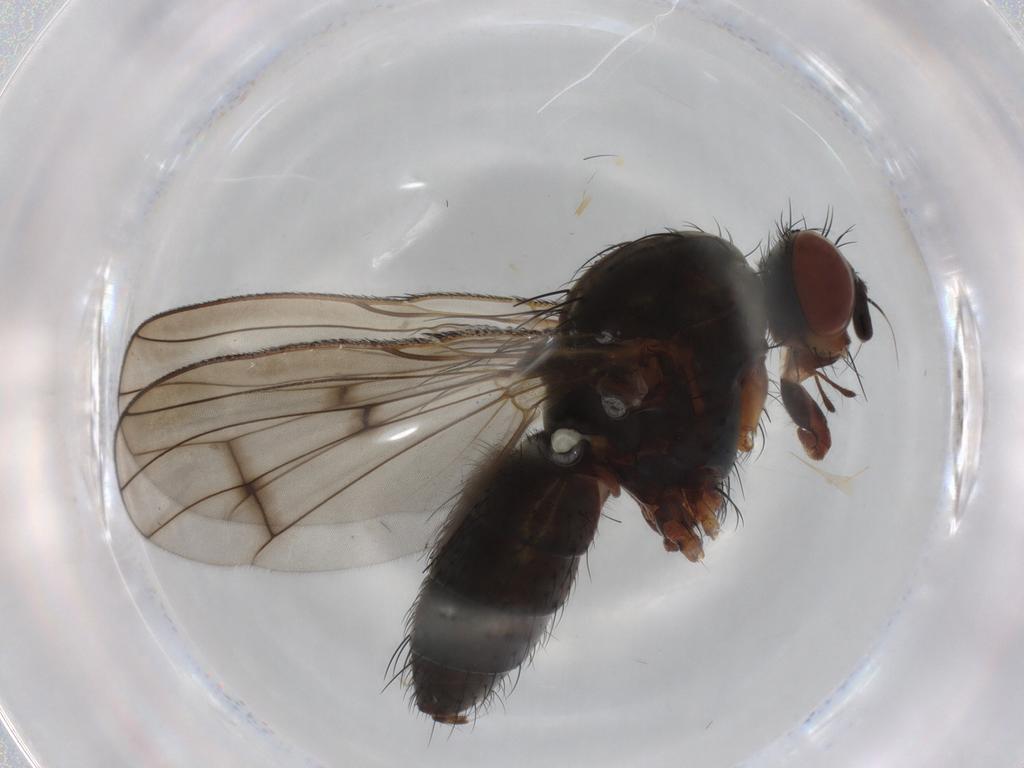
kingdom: Animalia
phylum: Arthropoda
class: Insecta
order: Diptera
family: Anthomyiidae
